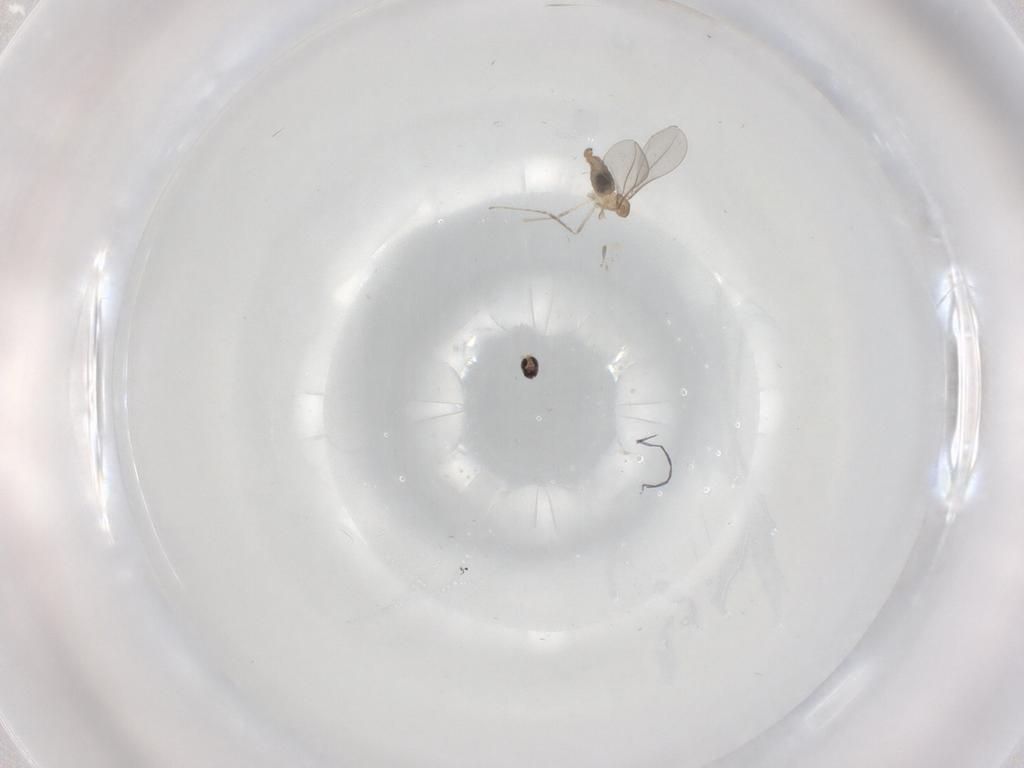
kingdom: Animalia
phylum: Arthropoda
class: Insecta
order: Diptera
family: Cecidomyiidae
